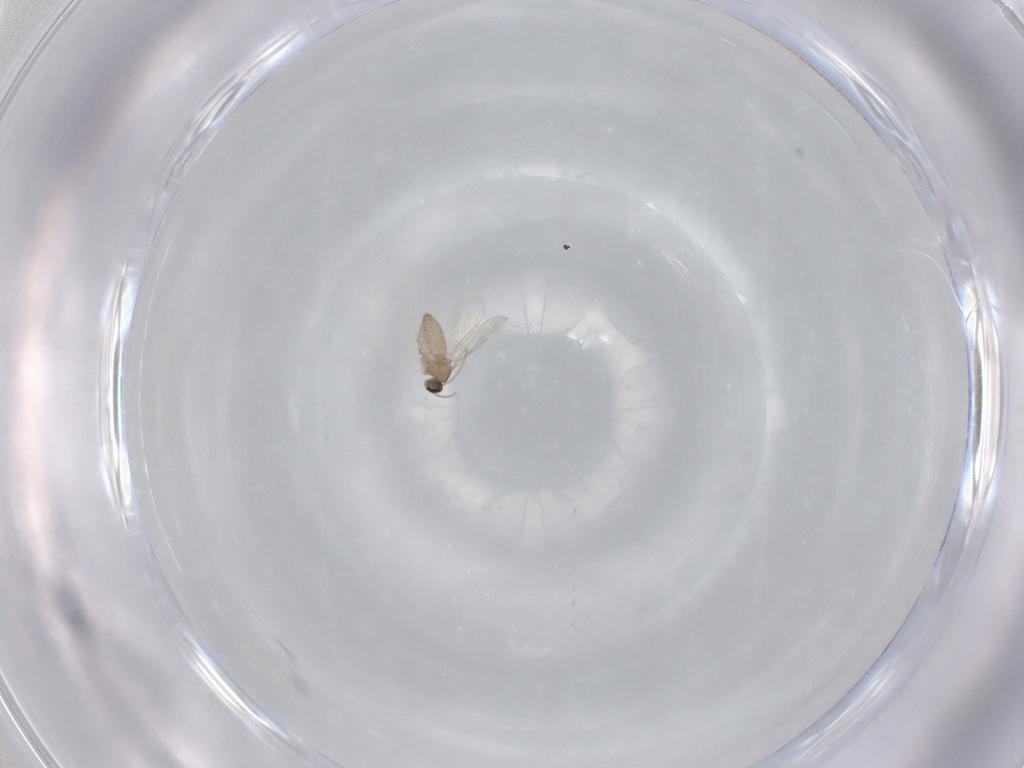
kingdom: Animalia
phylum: Arthropoda
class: Insecta
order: Diptera
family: Cecidomyiidae
